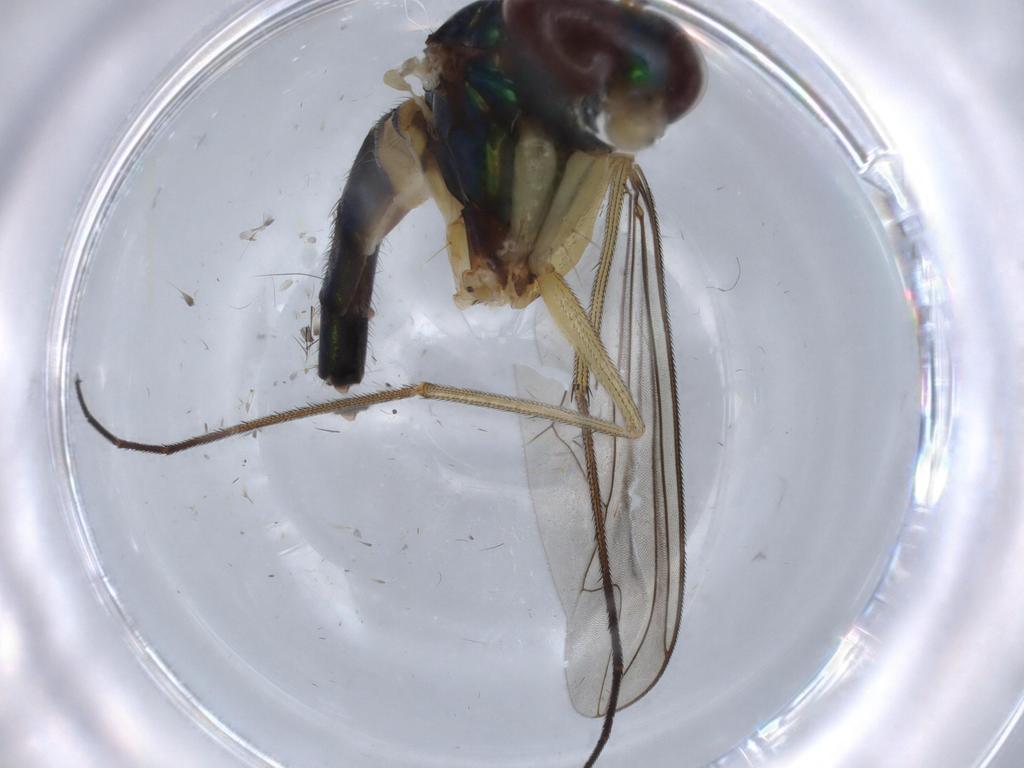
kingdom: Animalia
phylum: Arthropoda
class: Insecta
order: Diptera
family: Dolichopodidae
